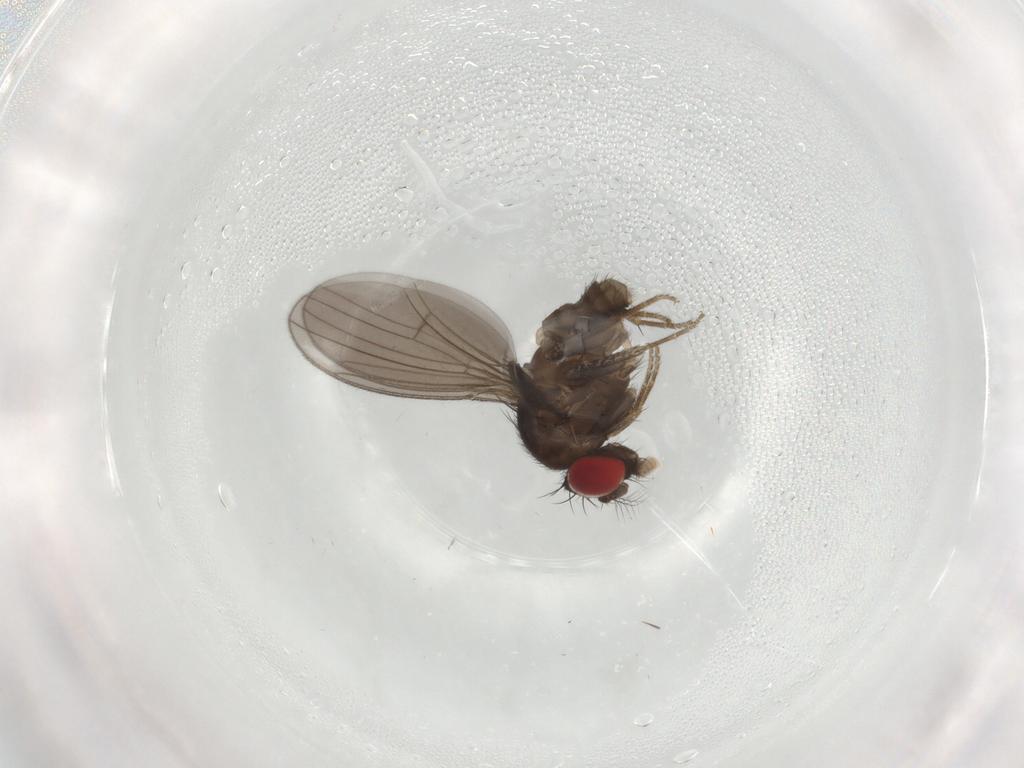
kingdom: Animalia
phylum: Arthropoda
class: Insecta
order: Diptera
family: Drosophilidae
